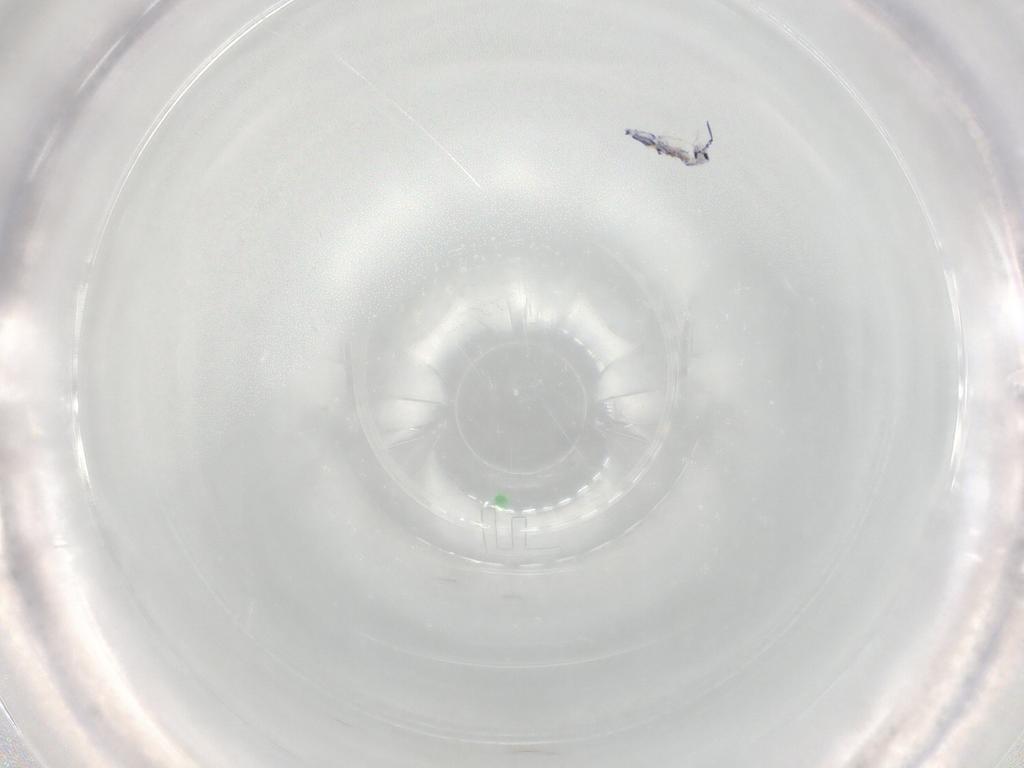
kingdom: Animalia
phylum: Arthropoda
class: Collembola
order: Entomobryomorpha
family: Entomobryidae
